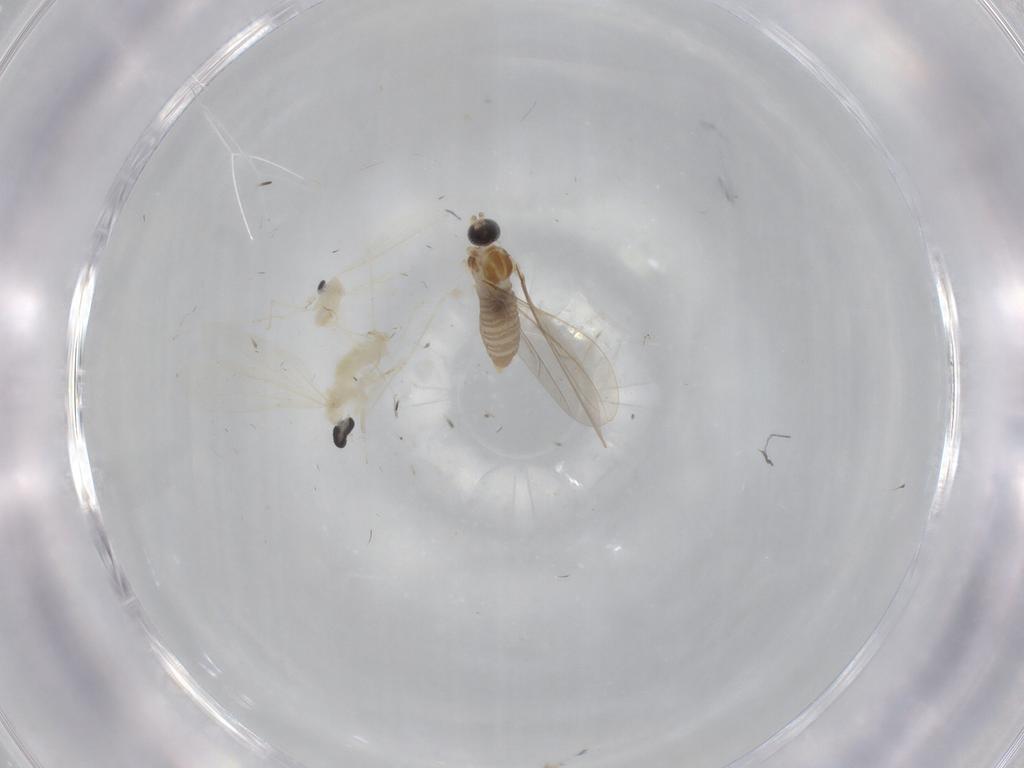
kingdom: Animalia
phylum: Arthropoda
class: Insecta
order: Diptera
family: Cecidomyiidae
